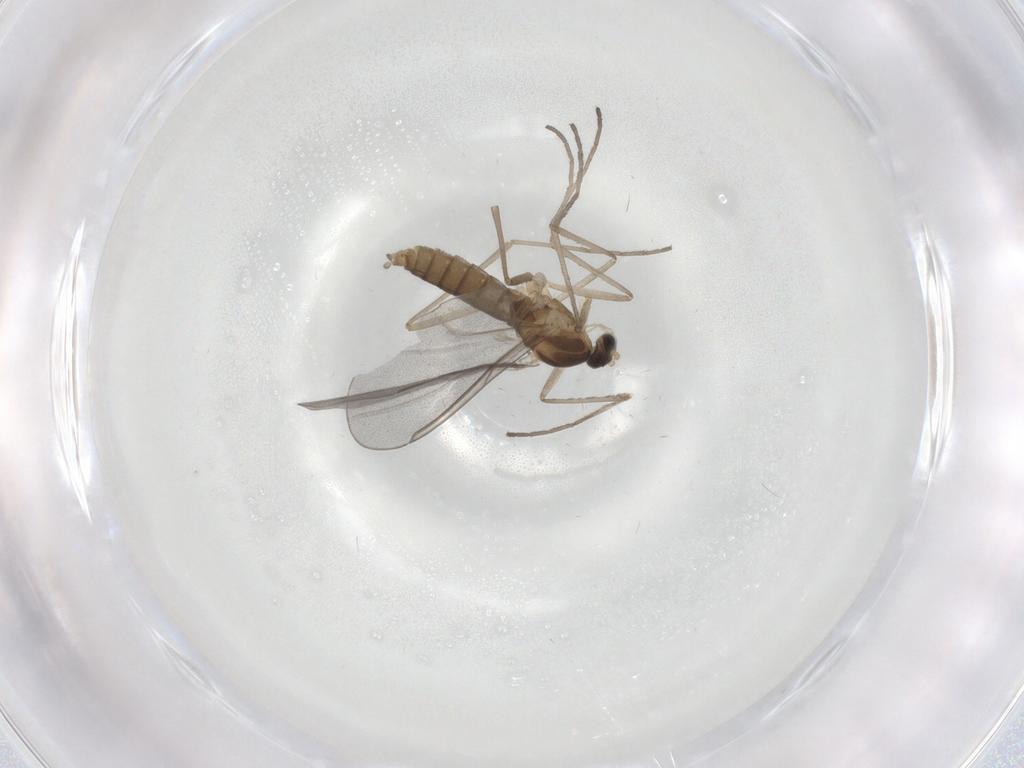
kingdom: Animalia
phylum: Arthropoda
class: Insecta
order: Diptera
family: Cecidomyiidae
